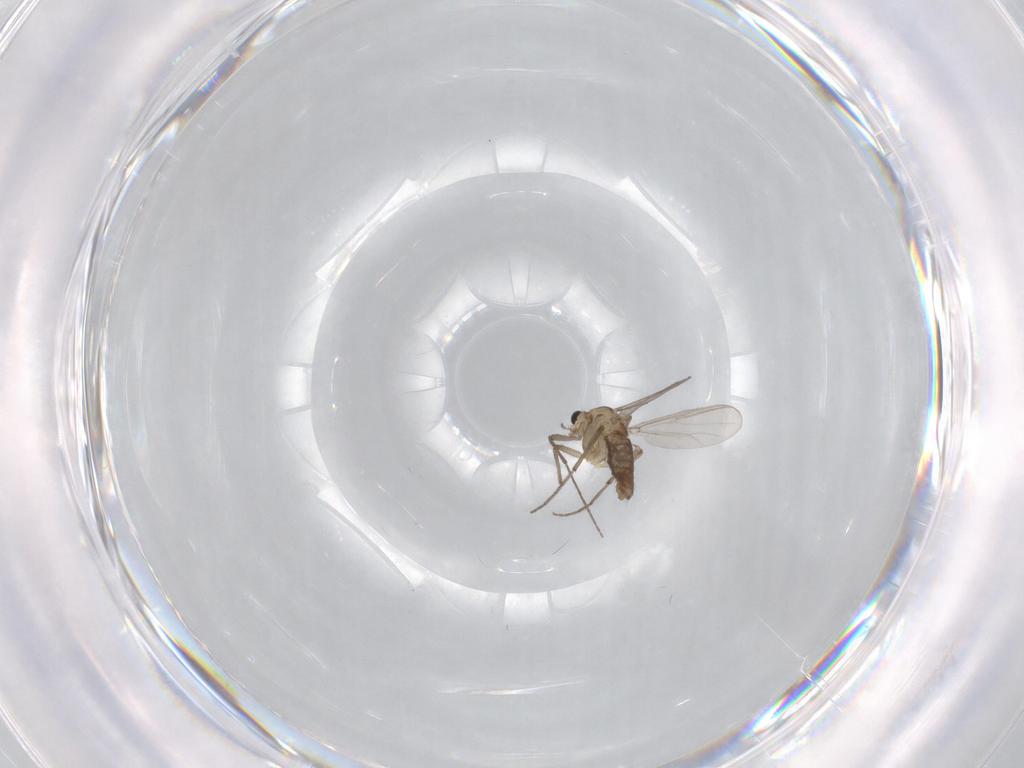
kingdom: Animalia
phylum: Arthropoda
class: Insecta
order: Diptera
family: Chironomidae
